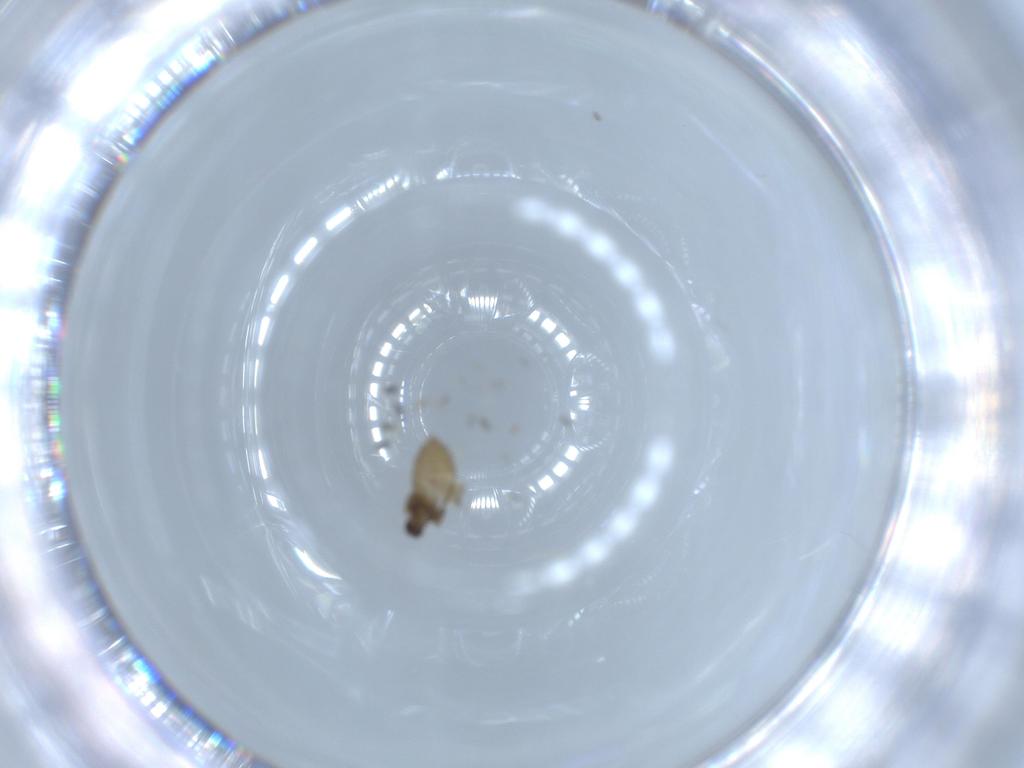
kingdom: Animalia
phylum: Arthropoda
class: Insecta
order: Diptera
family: Phoridae
